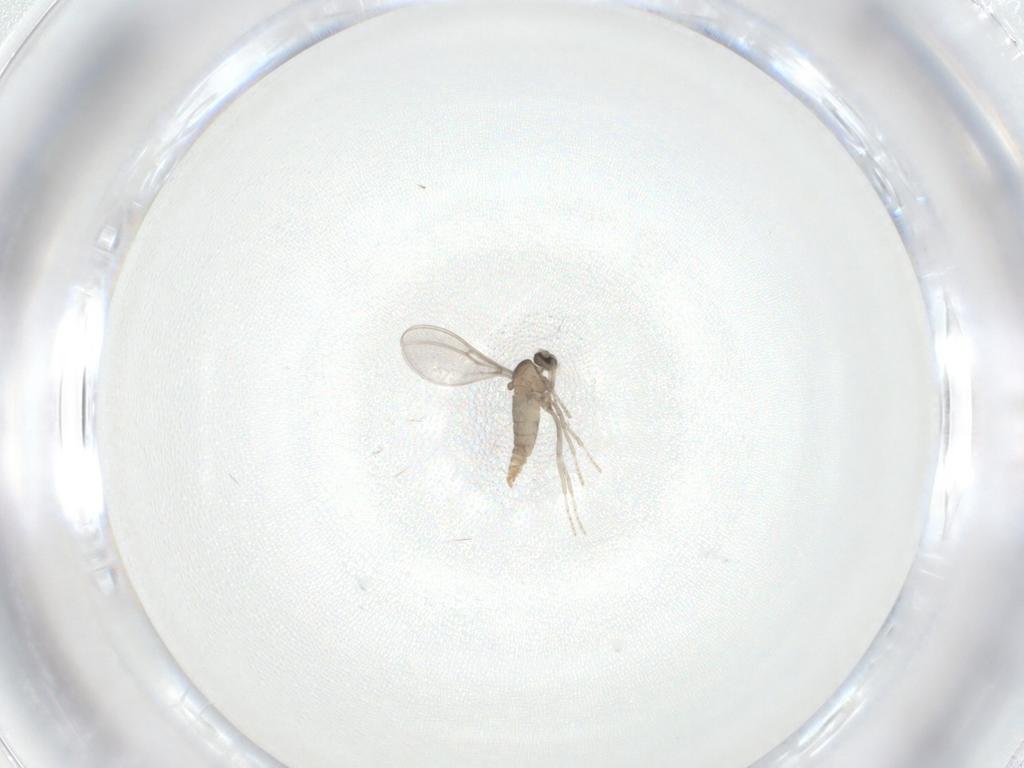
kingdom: Animalia
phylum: Arthropoda
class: Insecta
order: Diptera
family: Cecidomyiidae
